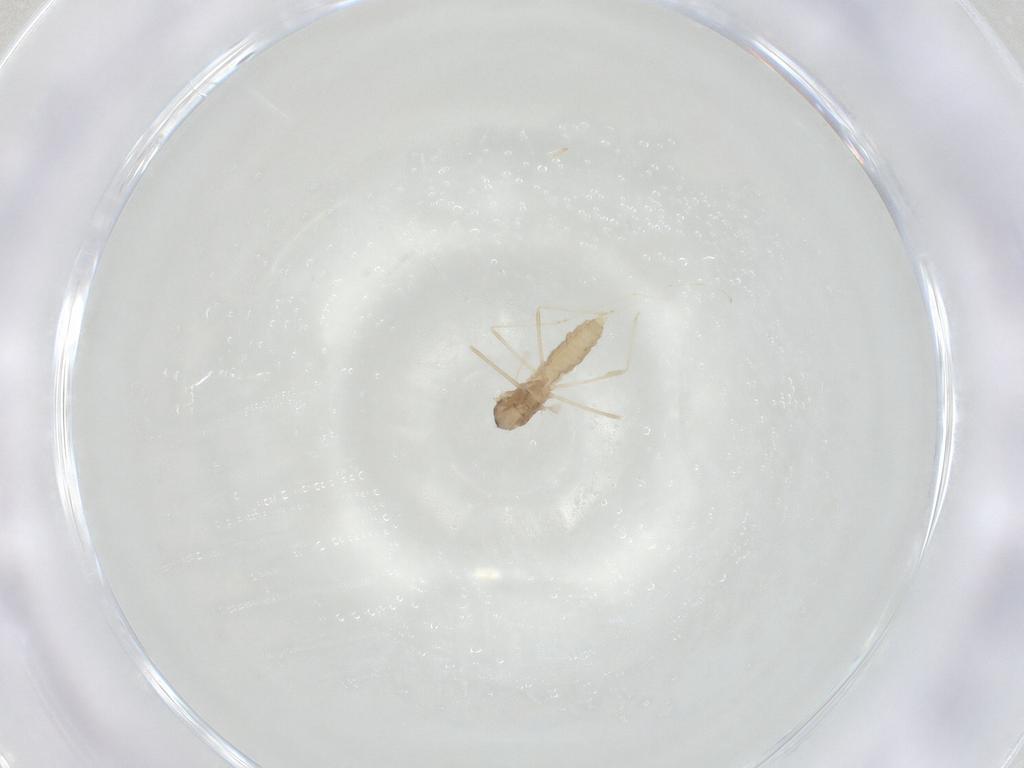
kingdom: Animalia
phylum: Arthropoda
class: Insecta
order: Diptera
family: Cecidomyiidae
